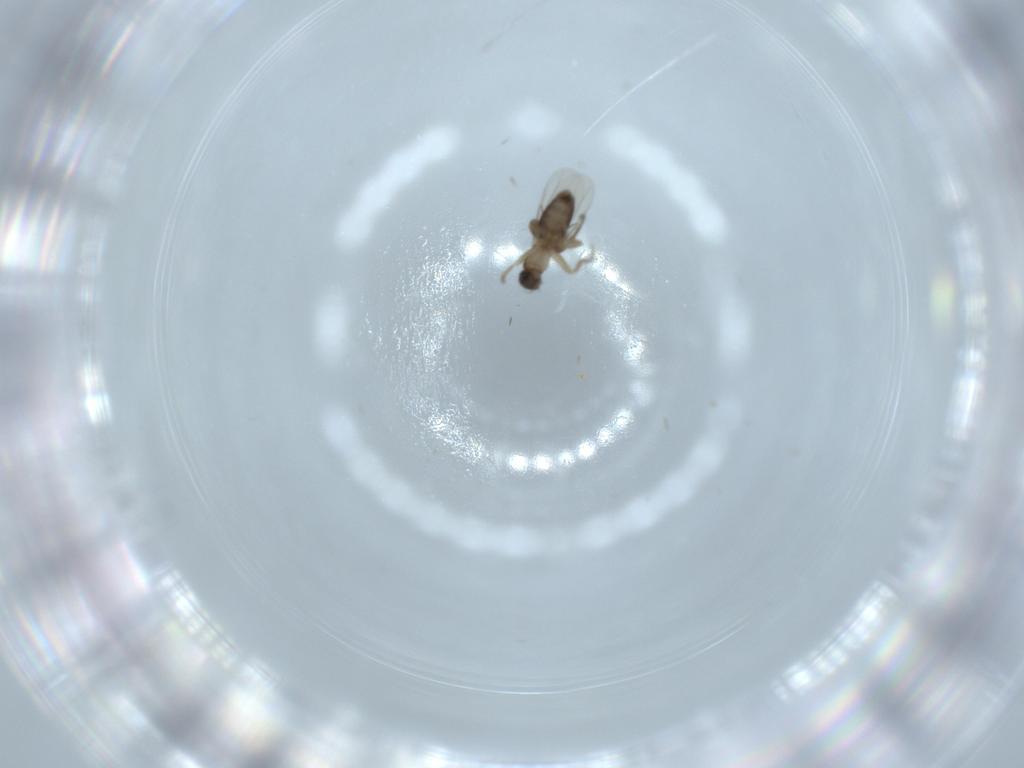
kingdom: Animalia
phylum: Arthropoda
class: Insecta
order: Diptera
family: Phoridae
